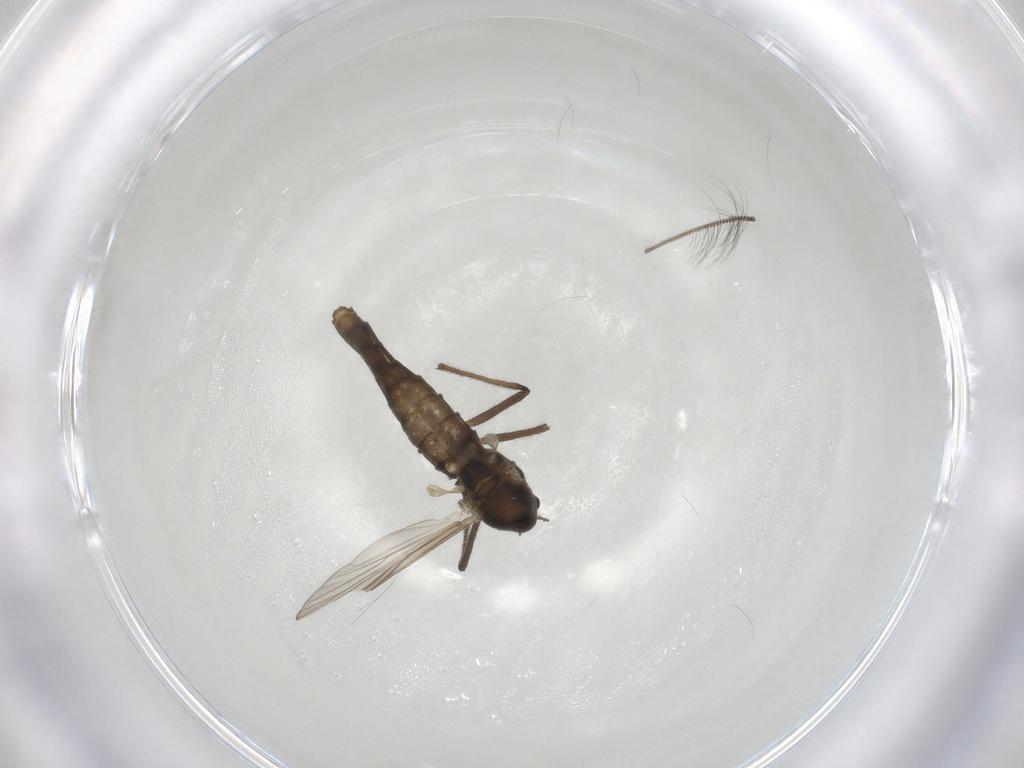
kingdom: Animalia
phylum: Arthropoda
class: Insecta
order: Diptera
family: Chironomidae
